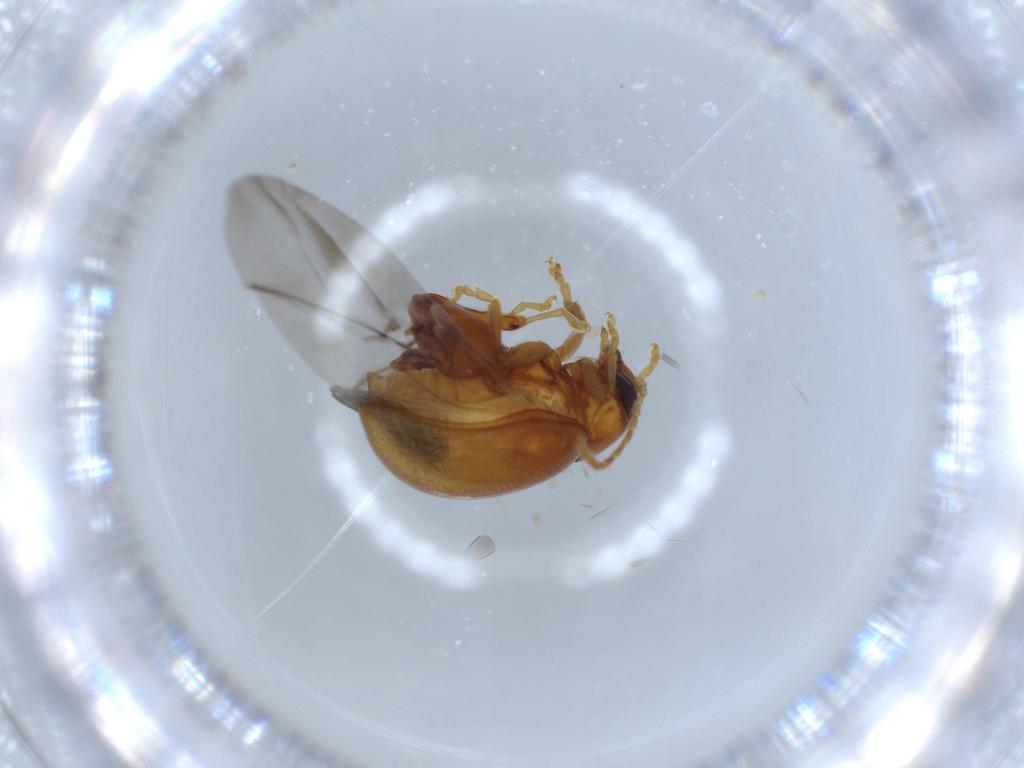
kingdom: Animalia
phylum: Arthropoda
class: Insecta
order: Coleoptera
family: Chrysomelidae
